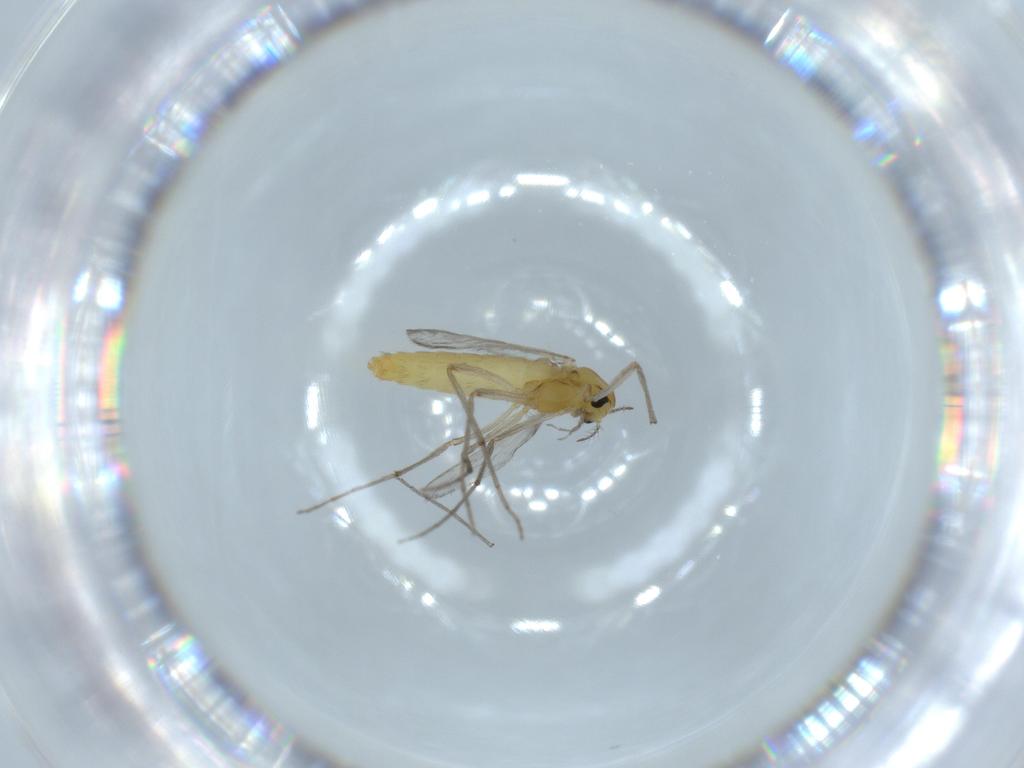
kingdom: Animalia
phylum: Arthropoda
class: Insecta
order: Diptera
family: Chironomidae
